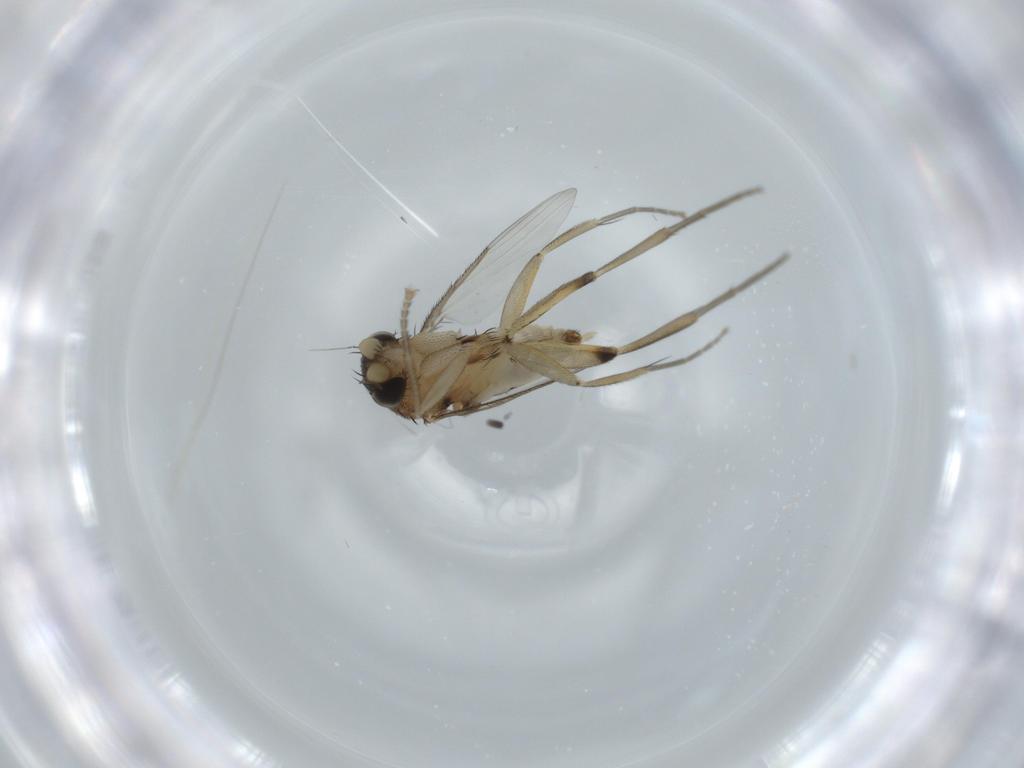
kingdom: Animalia
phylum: Arthropoda
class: Insecta
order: Diptera
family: Phoridae
